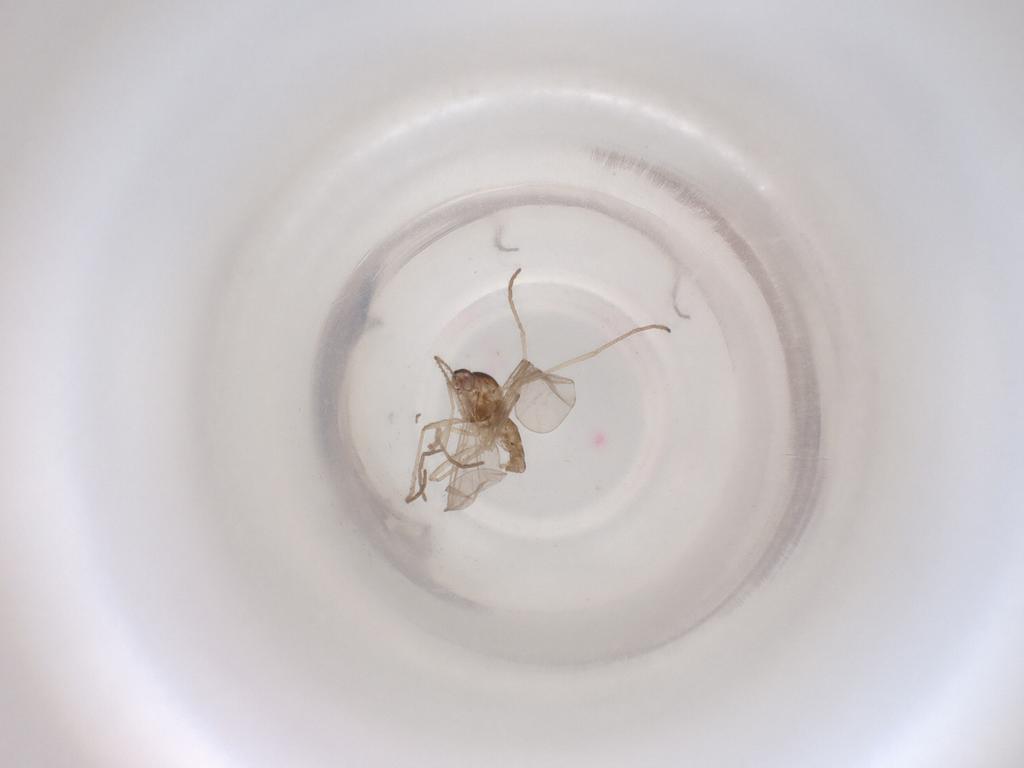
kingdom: Animalia
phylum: Arthropoda
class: Insecta
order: Diptera
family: Cecidomyiidae
